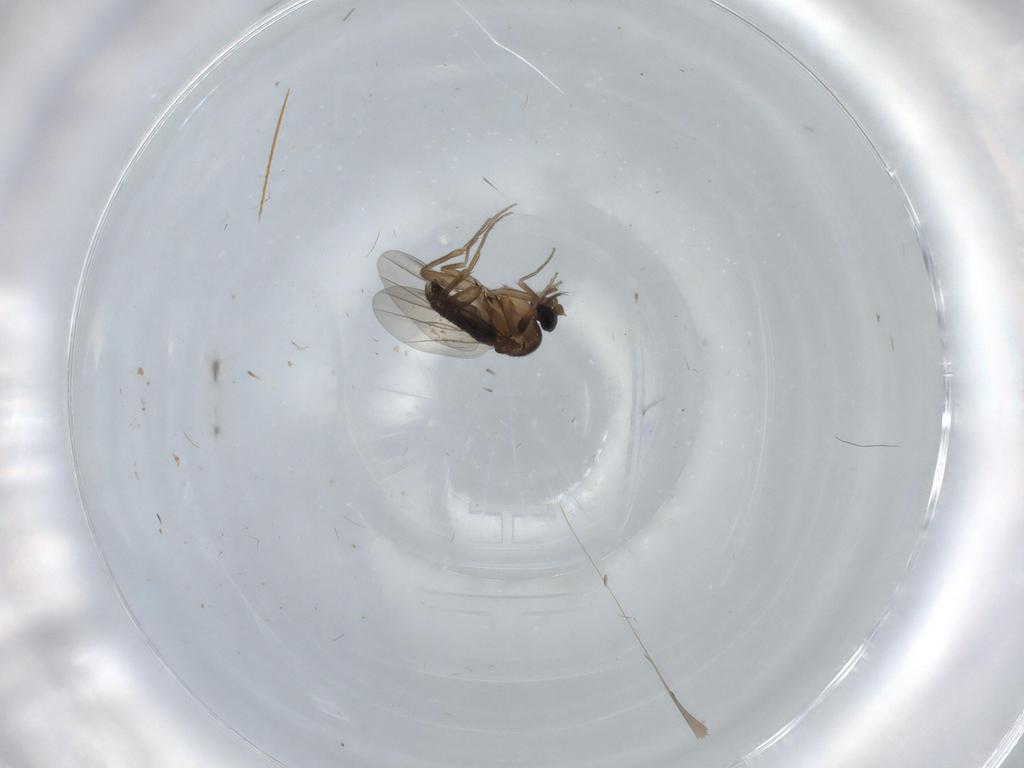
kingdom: Animalia
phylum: Arthropoda
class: Insecta
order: Diptera
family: Phoridae
